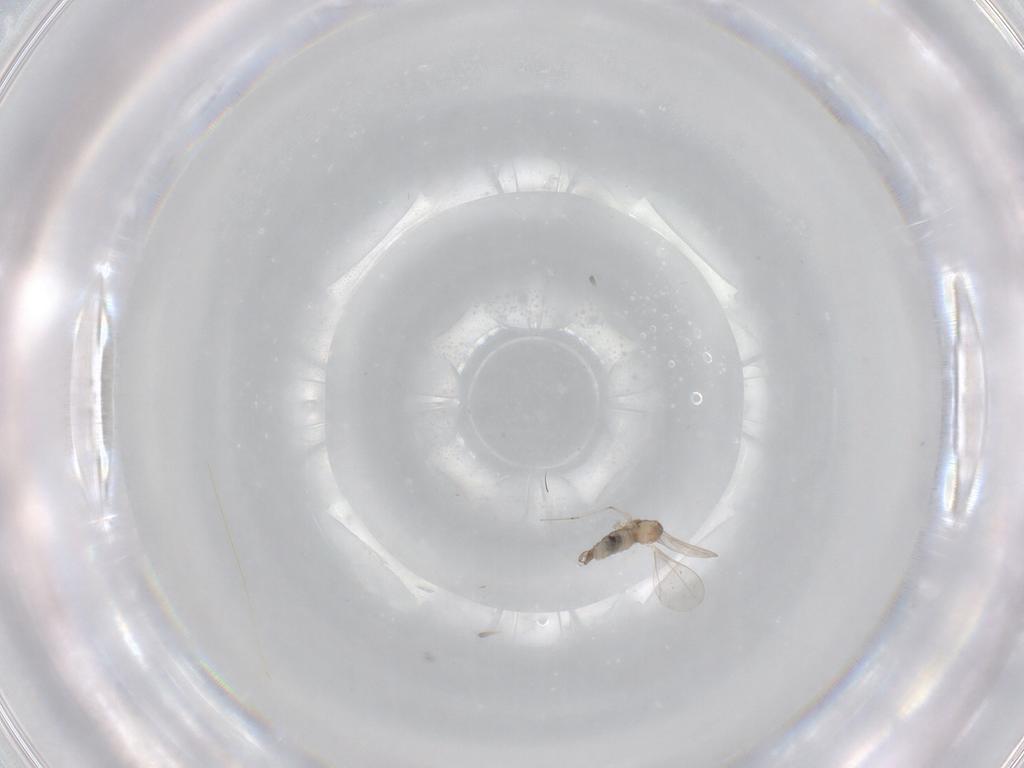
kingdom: Animalia
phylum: Arthropoda
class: Insecta
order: Diptera
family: Cecidomyiidae
